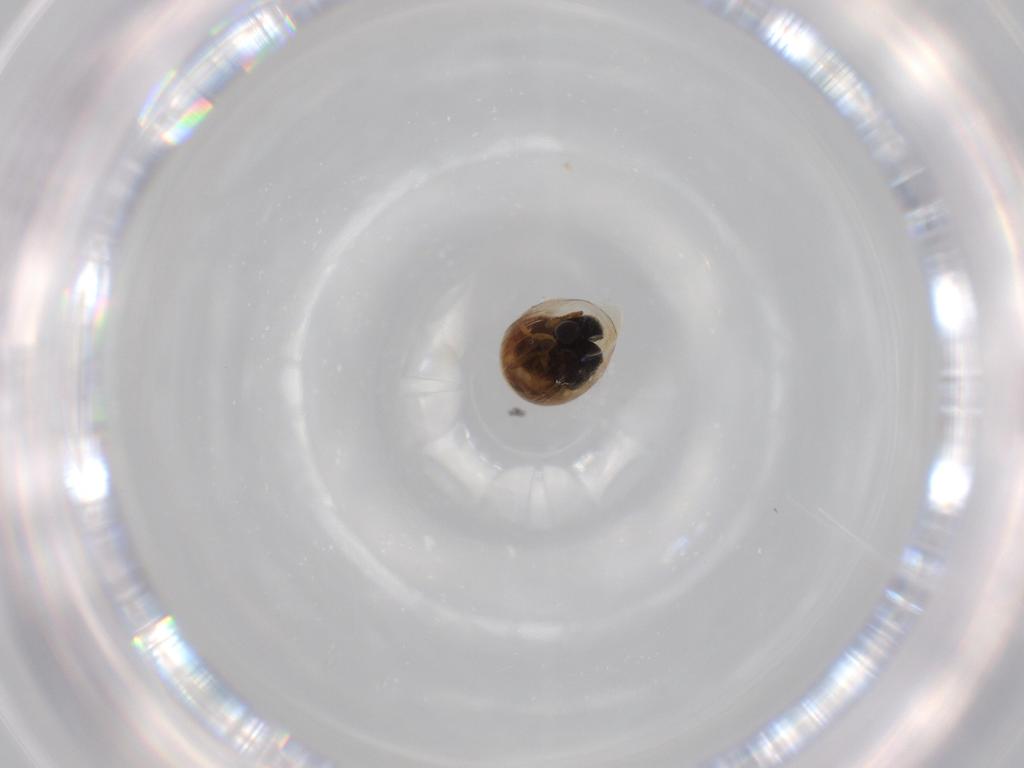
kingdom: Animalia
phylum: Arthropoda
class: Insecta
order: Hymenoptera
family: Scelionidae
